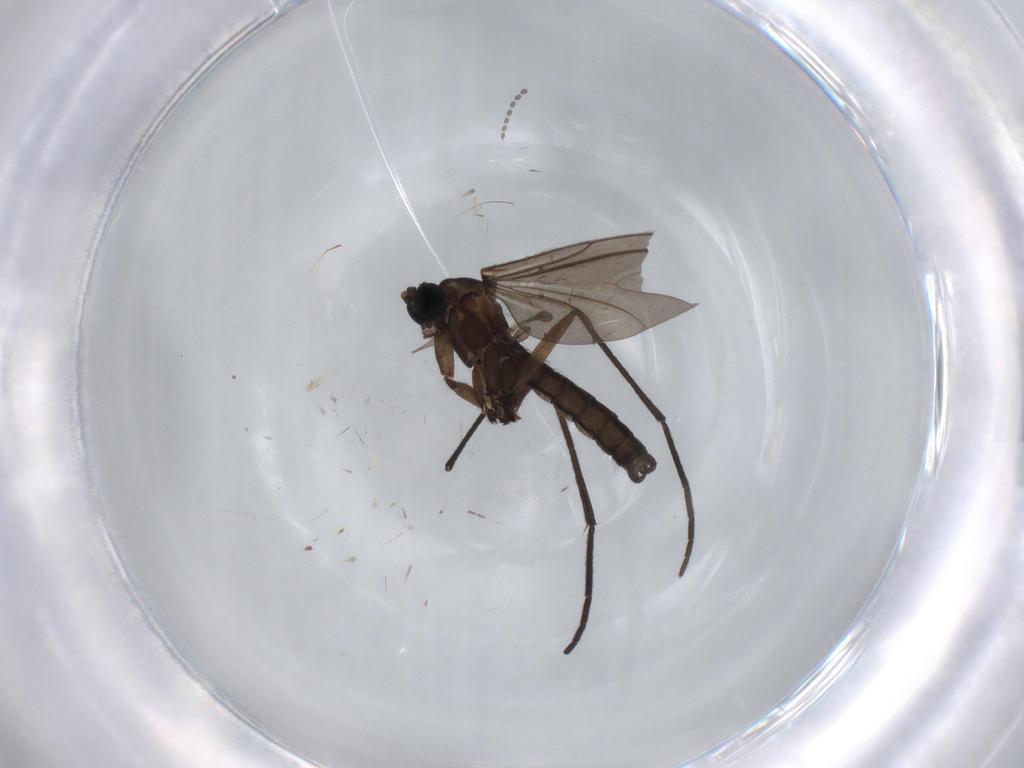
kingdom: Animalia
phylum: Arthropoda
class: Insecta
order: Diptera
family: Sciaridae
